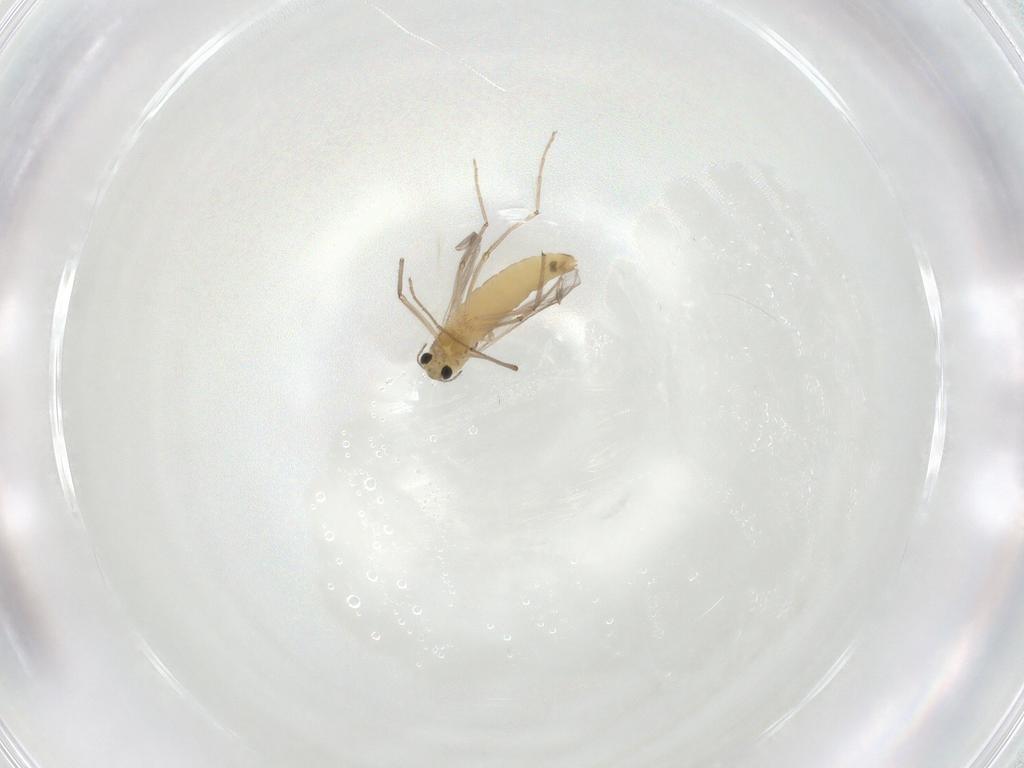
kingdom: Animalia
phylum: Arthropoda
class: Insecta
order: Diptera
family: Chironomidae
